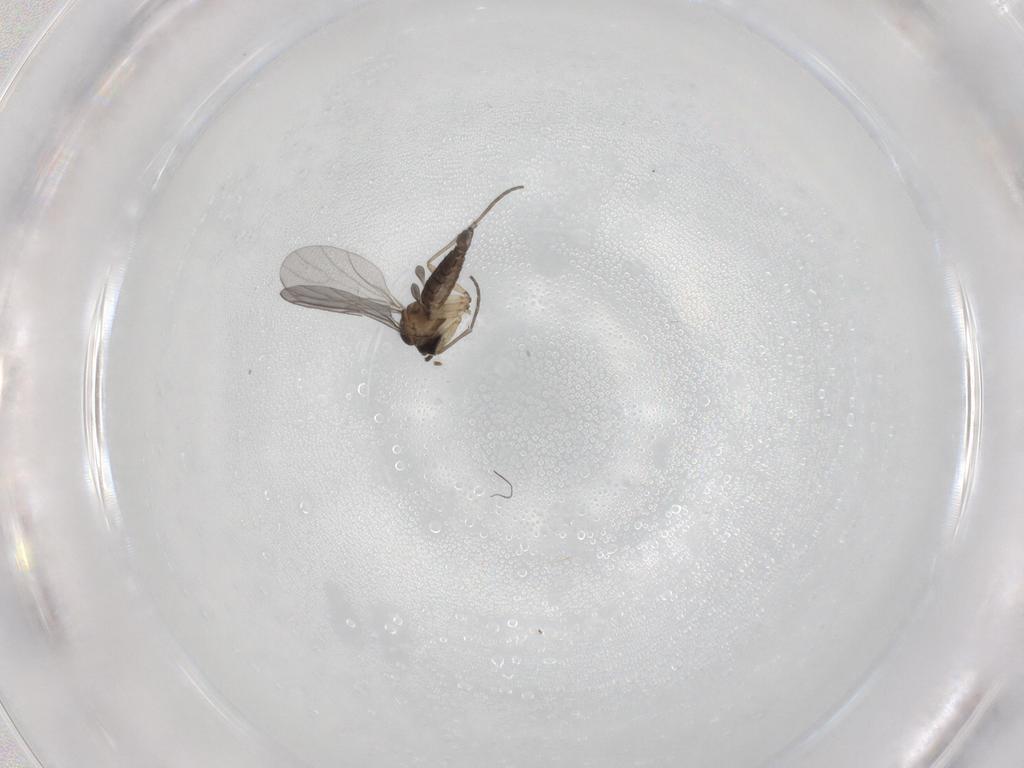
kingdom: Animalia
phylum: Arthropoda
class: Insecta
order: Diptera
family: Sciaridae
